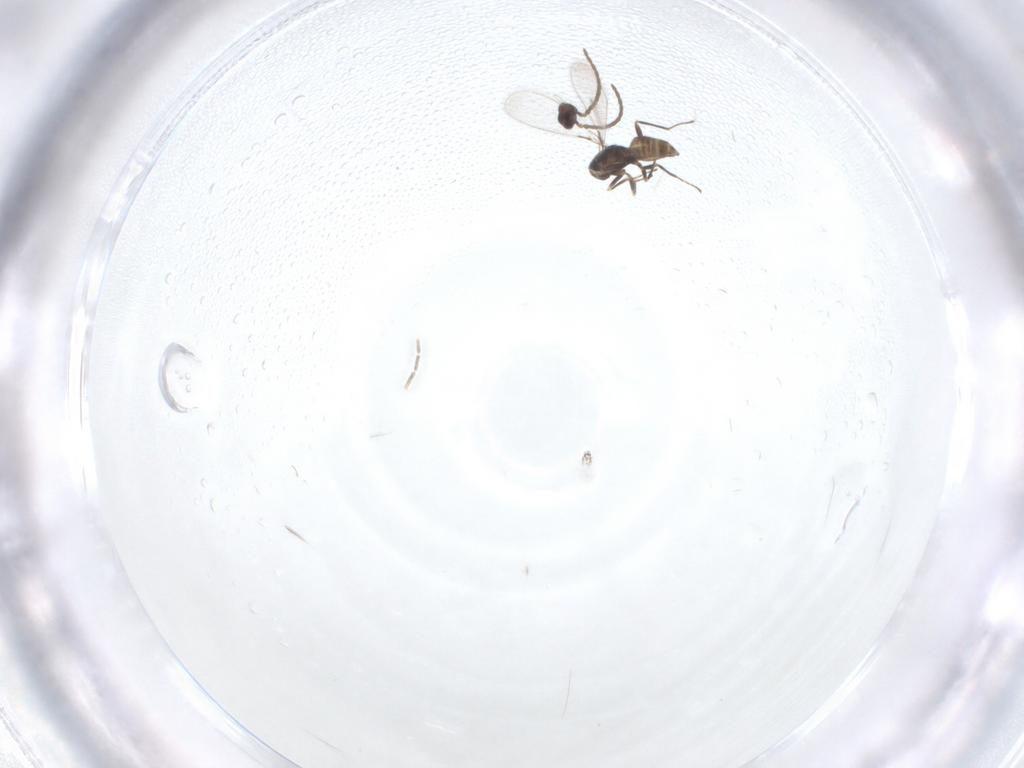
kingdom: Animalia
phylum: Arthropoda
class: Insecta
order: Hymenoptera
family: Mymaridae
